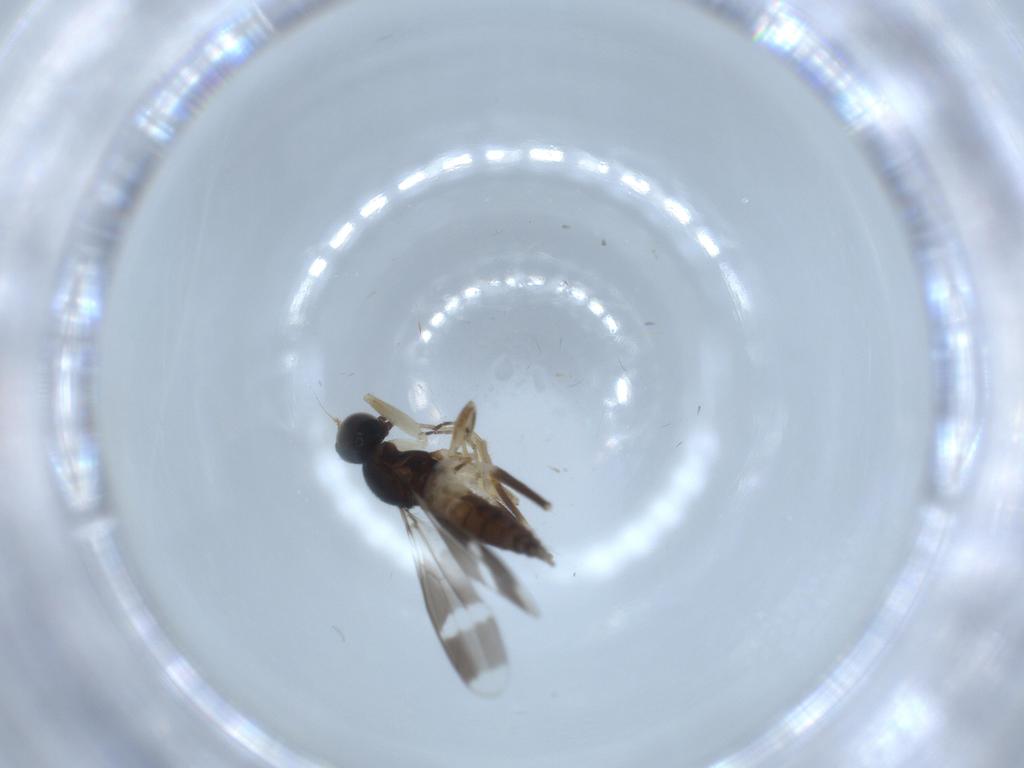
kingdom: Animalia
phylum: Arthropoda
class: Insecta
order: Diptera
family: Hybotidae
